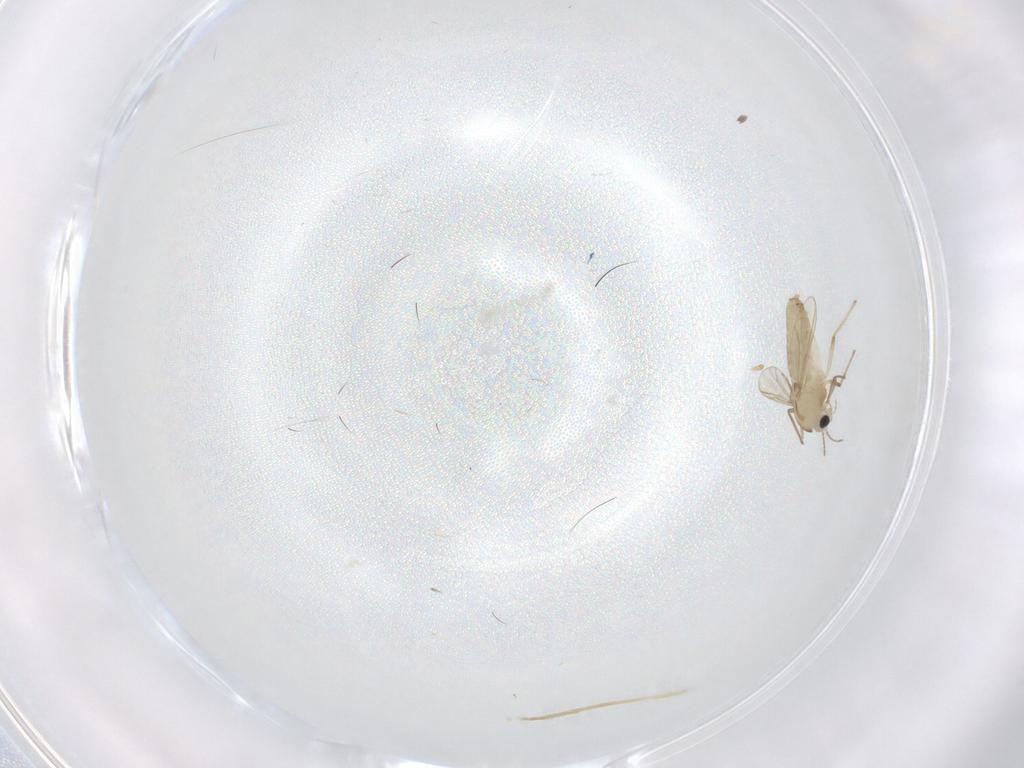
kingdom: Animalia
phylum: Arthropoda
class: Insecta
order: Diptera
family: Chironomidae
